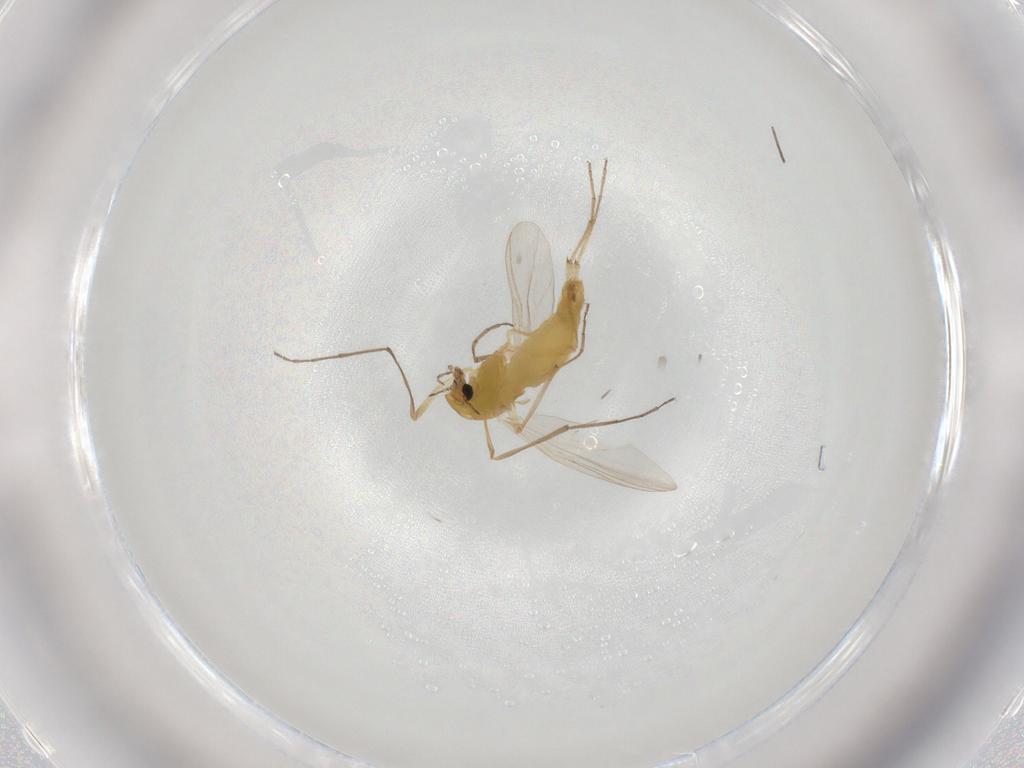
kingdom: Animalia
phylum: Arthropoda
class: Insecta
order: Diptera
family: Chironomidae
